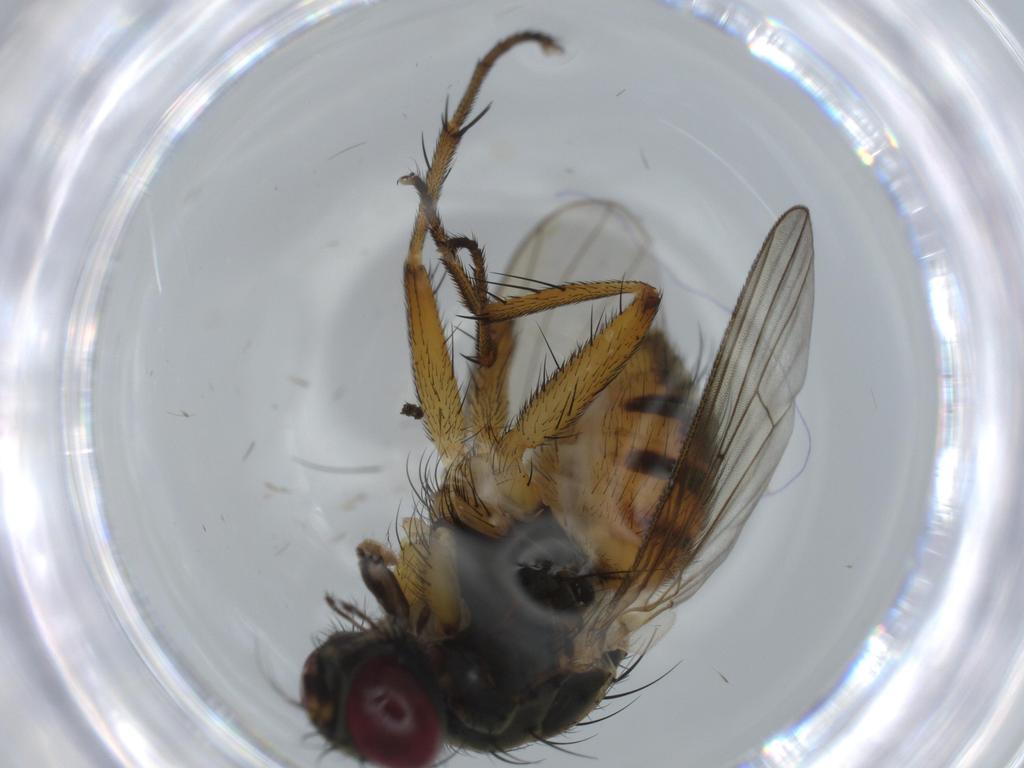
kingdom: Animalia
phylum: Arthropoda
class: Insecta
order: Diptera
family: Muscidae
